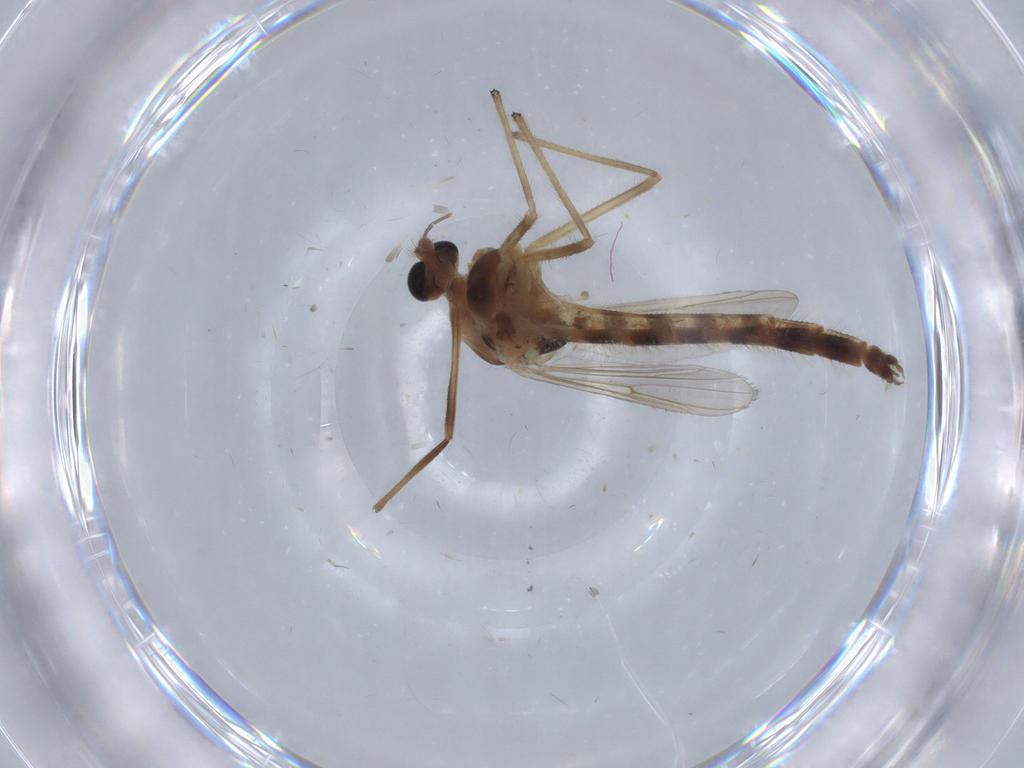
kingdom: Animalia
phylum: Arthropoda
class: Insecta
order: Diptera
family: Chironomidae
